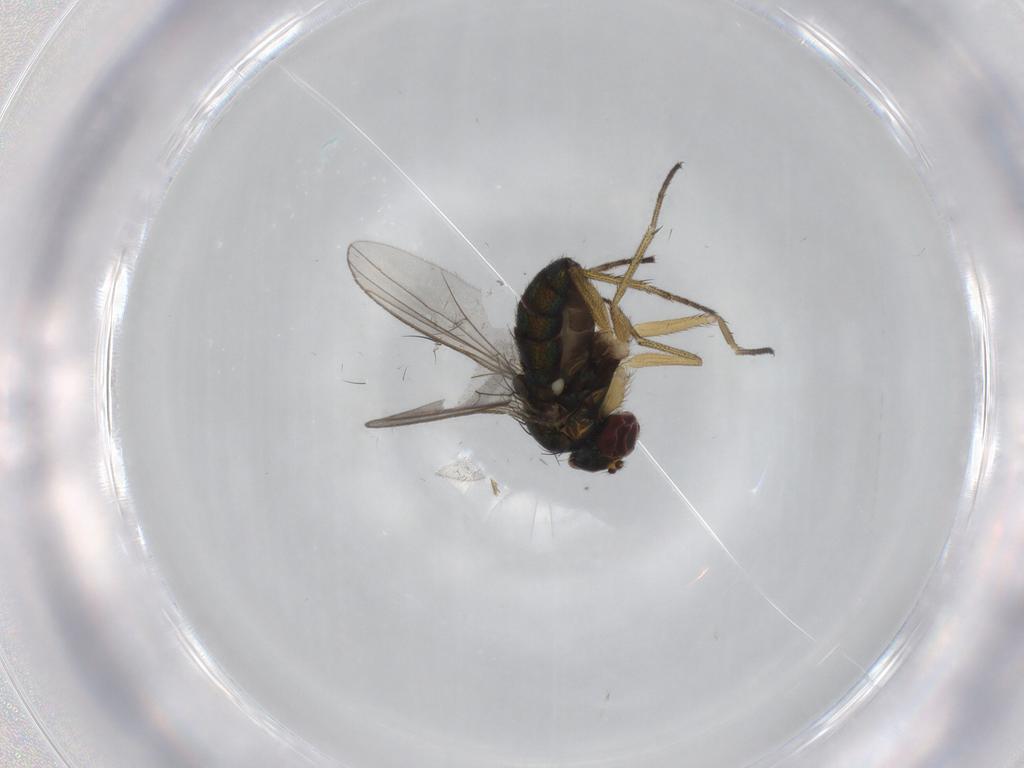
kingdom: Animalia
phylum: Arthropoda
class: Insecta
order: Diptera
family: Dolichopodidae
